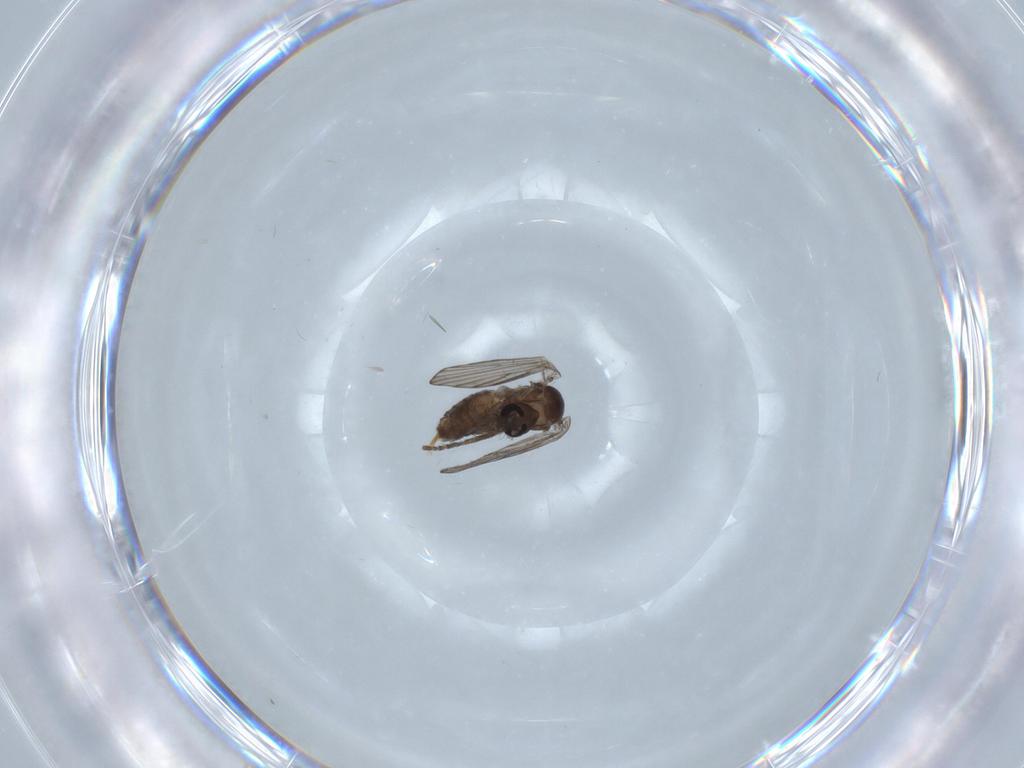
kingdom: Animalia
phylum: Arthropoda
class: Insecta
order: Diptera
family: Psychodidae
